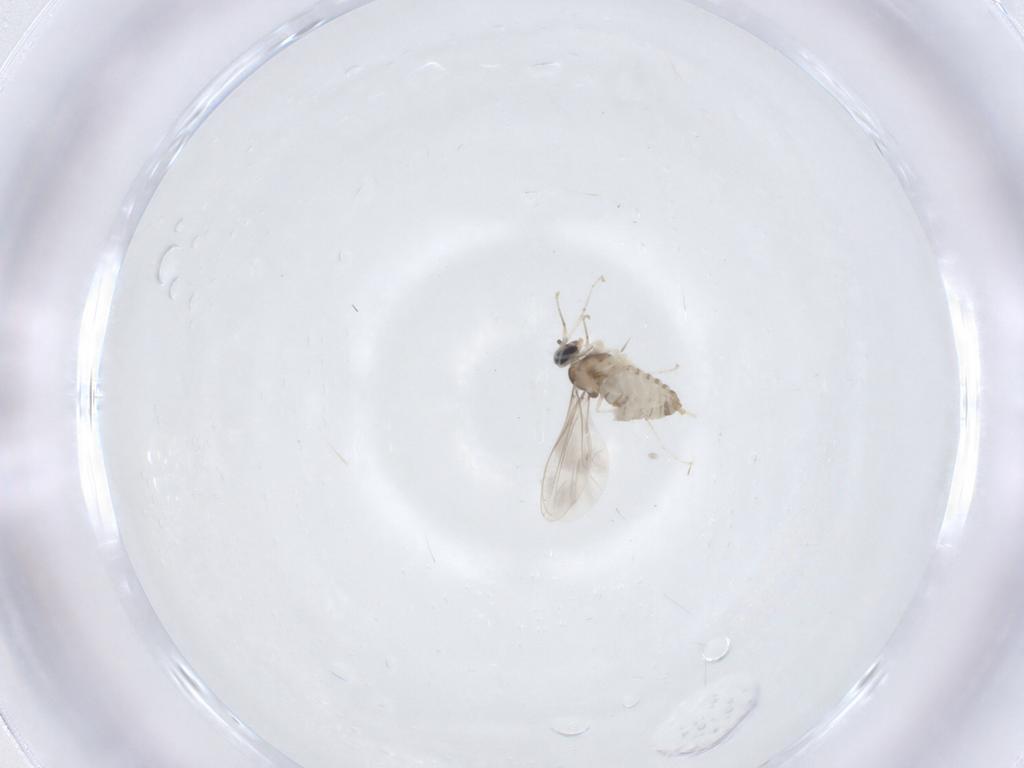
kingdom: Animalia
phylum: Arthropoda
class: Insecta
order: Diptera
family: Cecidomyiidae
